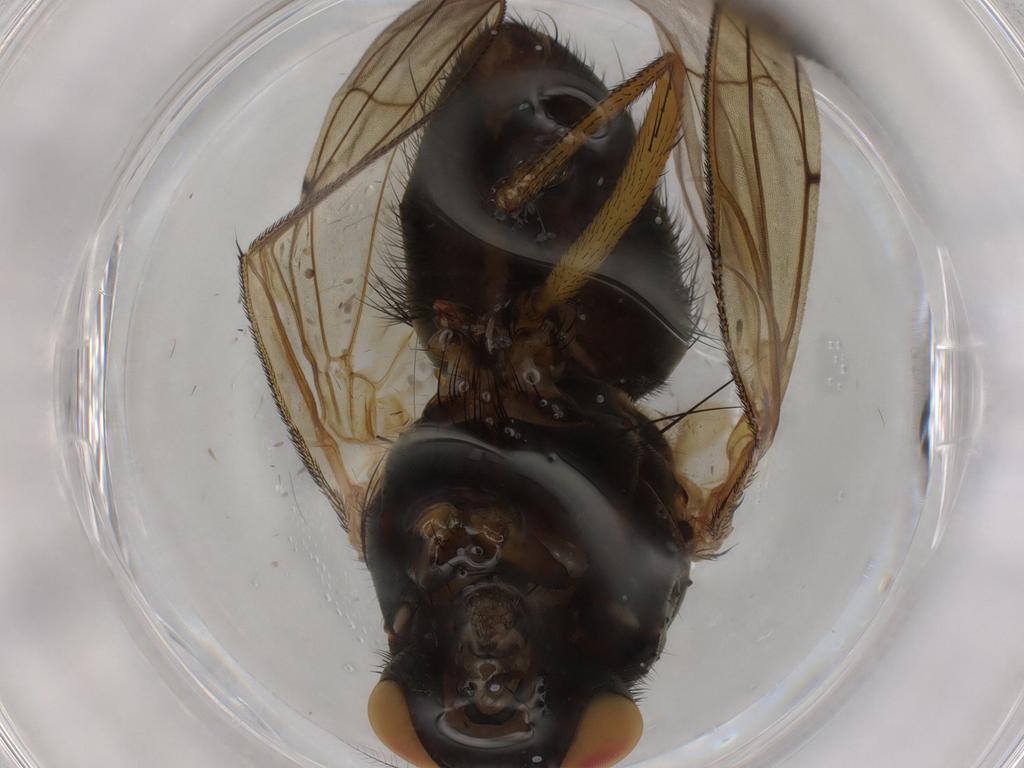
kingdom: Animalia
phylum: Arthropoda
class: Insecta
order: Diptera
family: Muscidae
